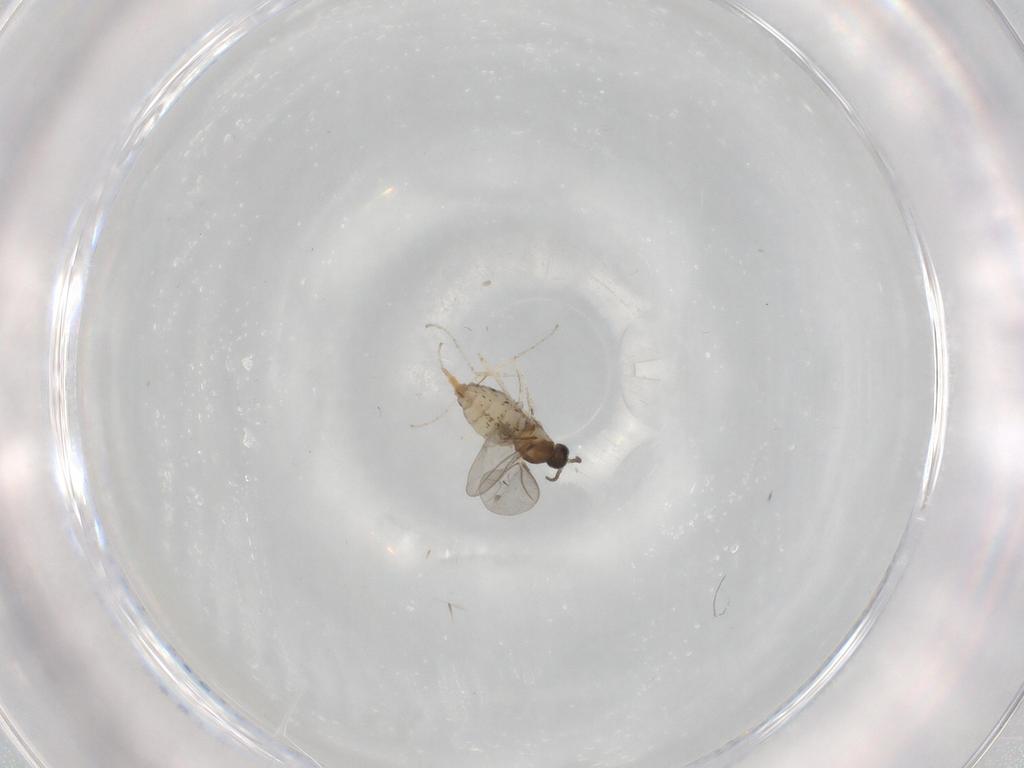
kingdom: Animalia
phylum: Arthropoda
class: Insecta
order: Diptera
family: Cecidomyiidae
